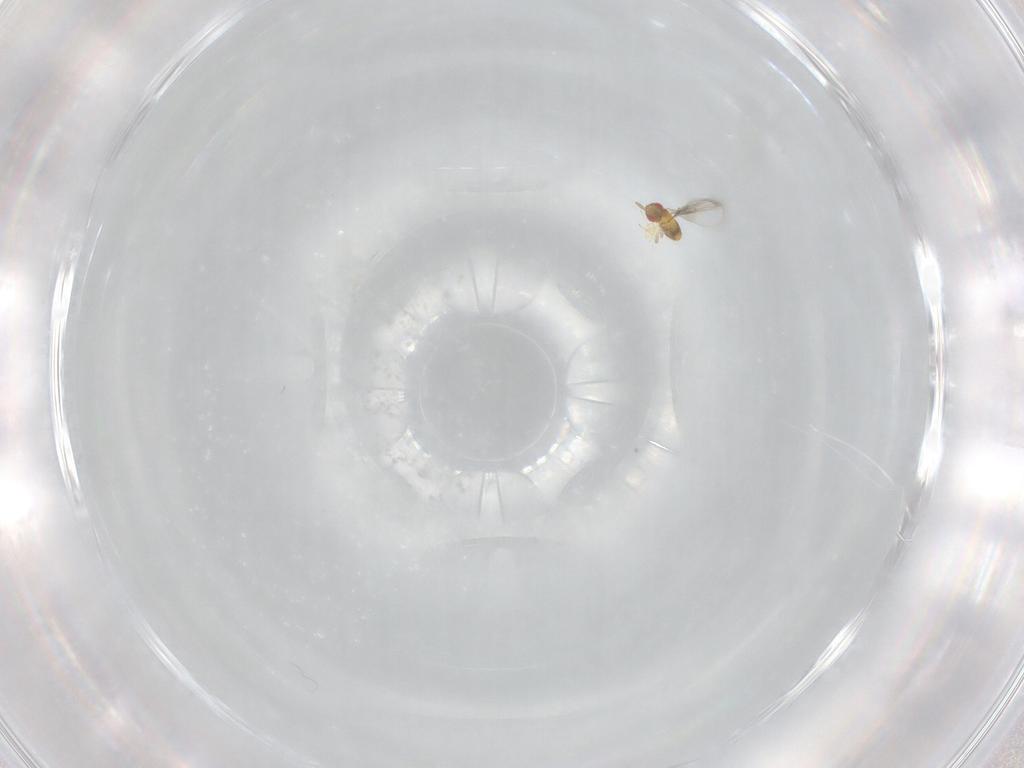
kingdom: Animalia
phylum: Arthropoda
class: Insecta
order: Hymenoptera
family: Trichogrammatidae
